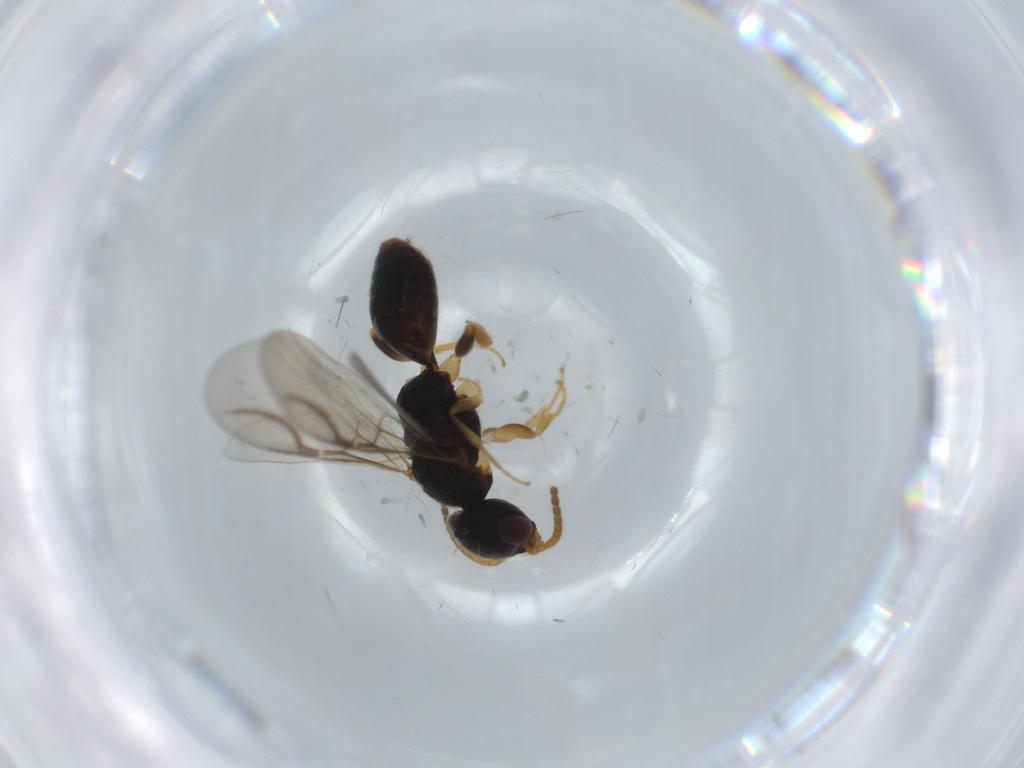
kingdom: Animalia
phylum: Arthropoda
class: Insecta
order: Hymenoptera
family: Bethylidae
